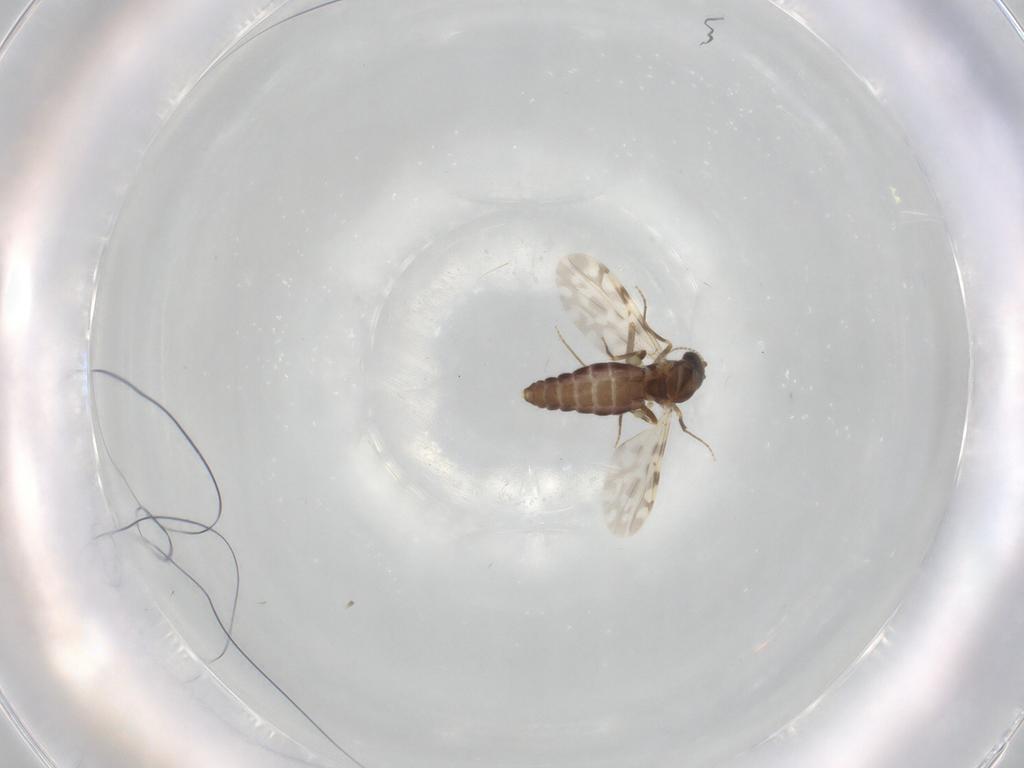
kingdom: Animalia
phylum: Arthropoda
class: Insecta
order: Diptera
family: Ceratopogonidae
